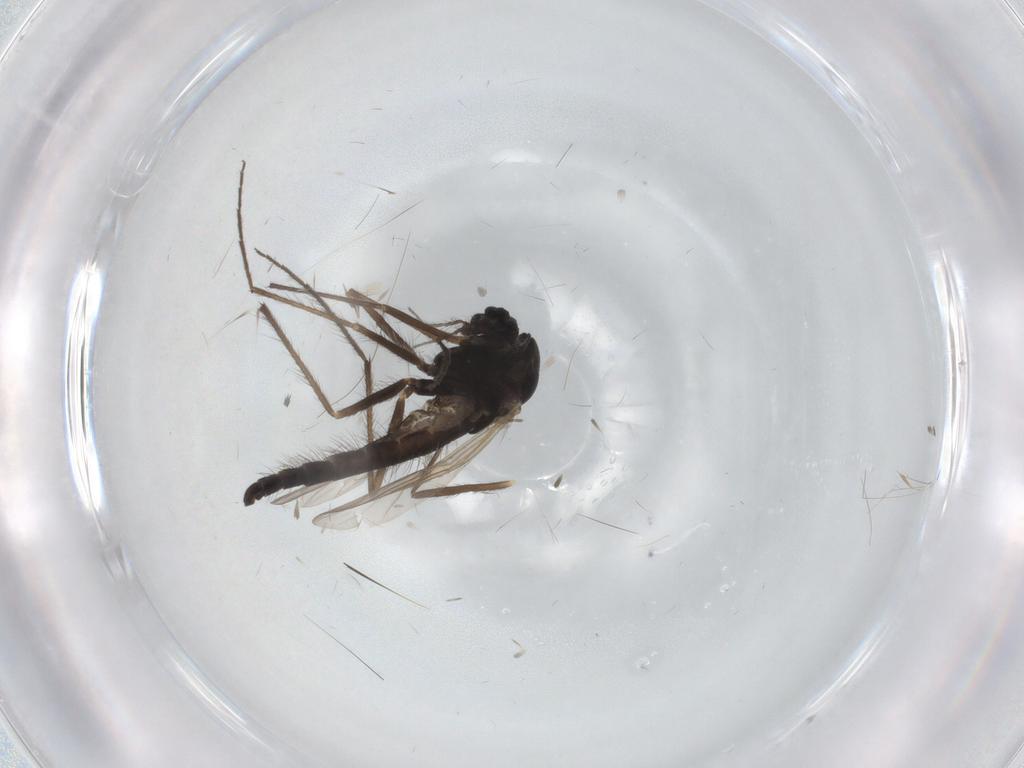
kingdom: Animalia
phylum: Arthropoda
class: Insecta
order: Diptera
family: Chironomidae
